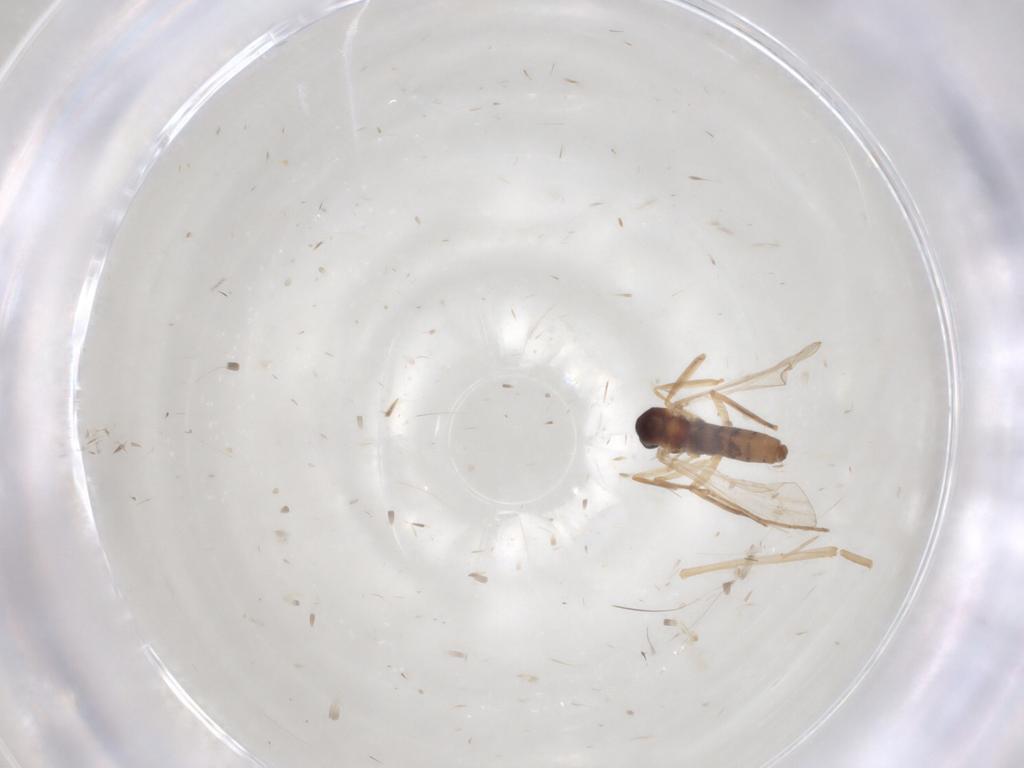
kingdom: Animalia
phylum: Arthropoda
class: Insecta
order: Diptera
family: Cecidomyiidae
